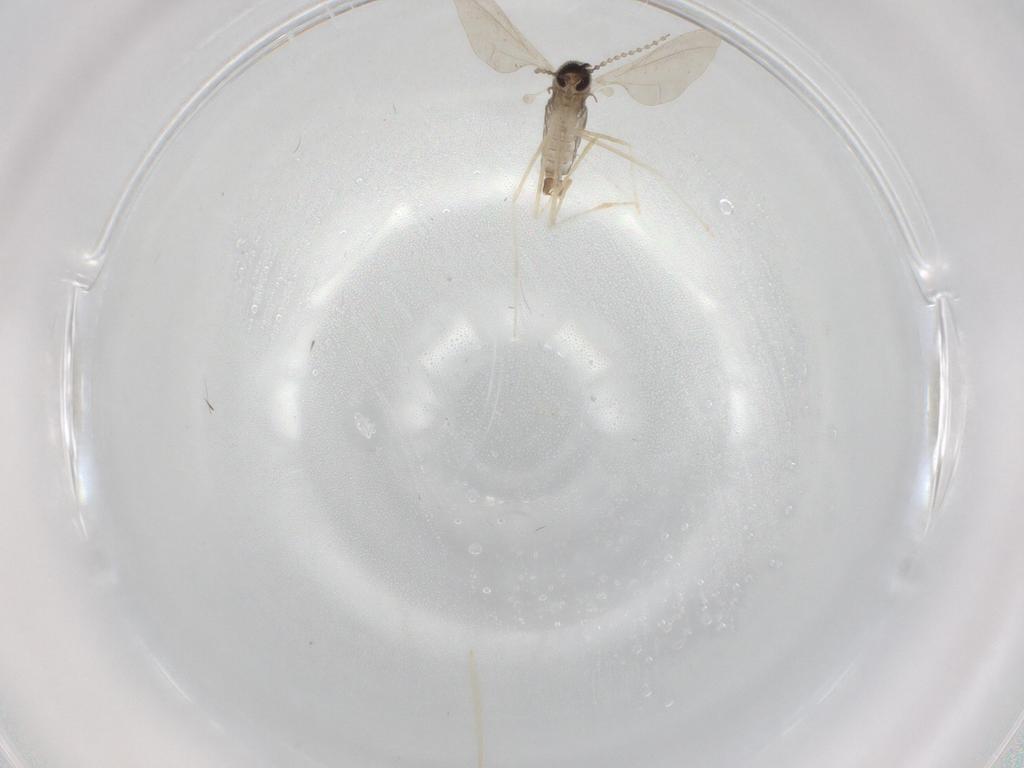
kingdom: Animalia
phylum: Arthropoda
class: Insecta
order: Diptera
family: Cecidomyiidae
